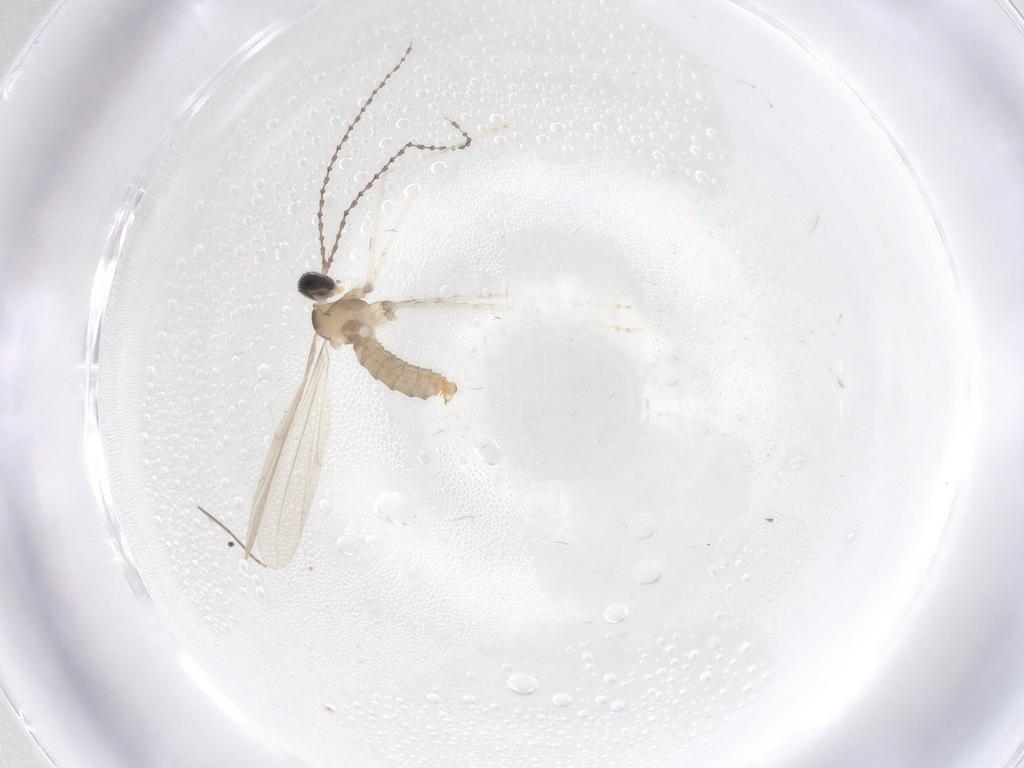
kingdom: Animalia
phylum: Arthropoda
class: Insecta
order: Diptera
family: Cecidomyiidae
